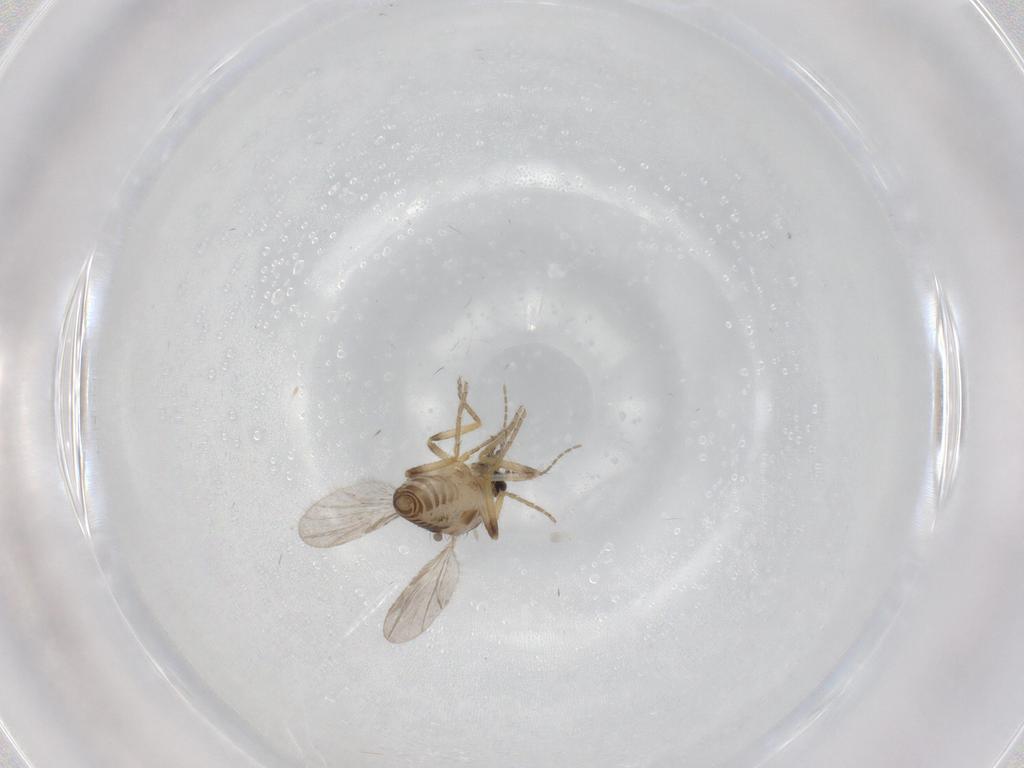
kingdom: Animalia
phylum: Arthropoda
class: Insecta
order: Diptera
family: Ceratopogonidae
